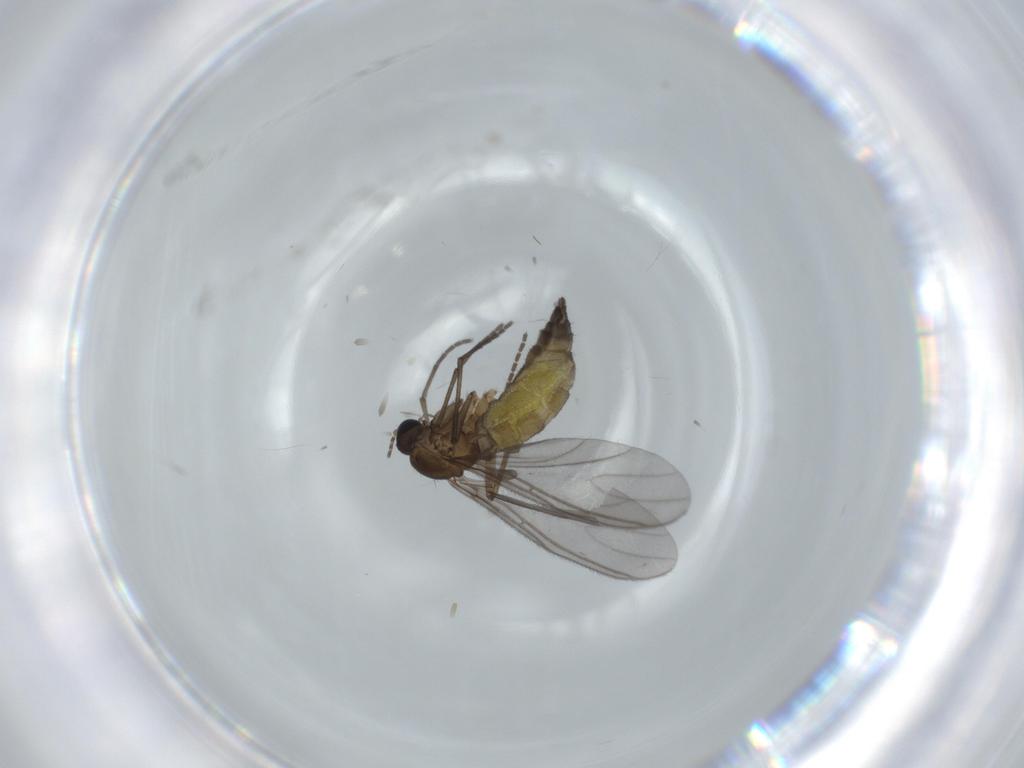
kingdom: Animalia
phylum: Arthropoda
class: Insecta
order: Diptera
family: Sciaridae
